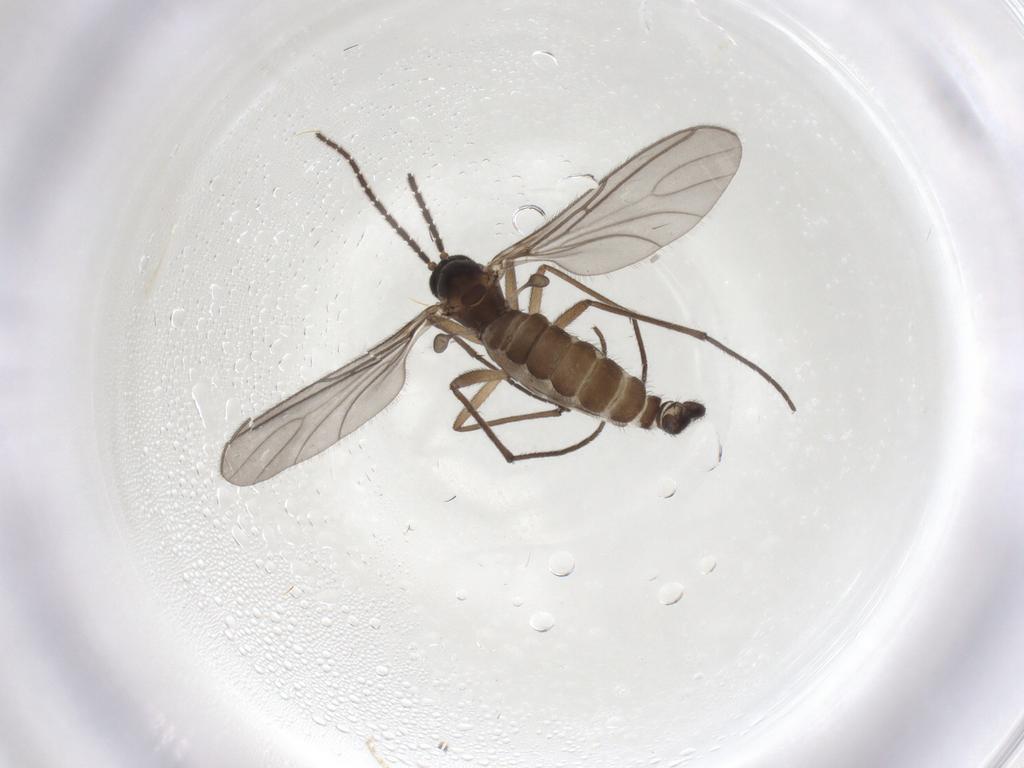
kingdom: Animalia
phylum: Arthropoda
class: Insecta
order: Diptera
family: Sciaridae
